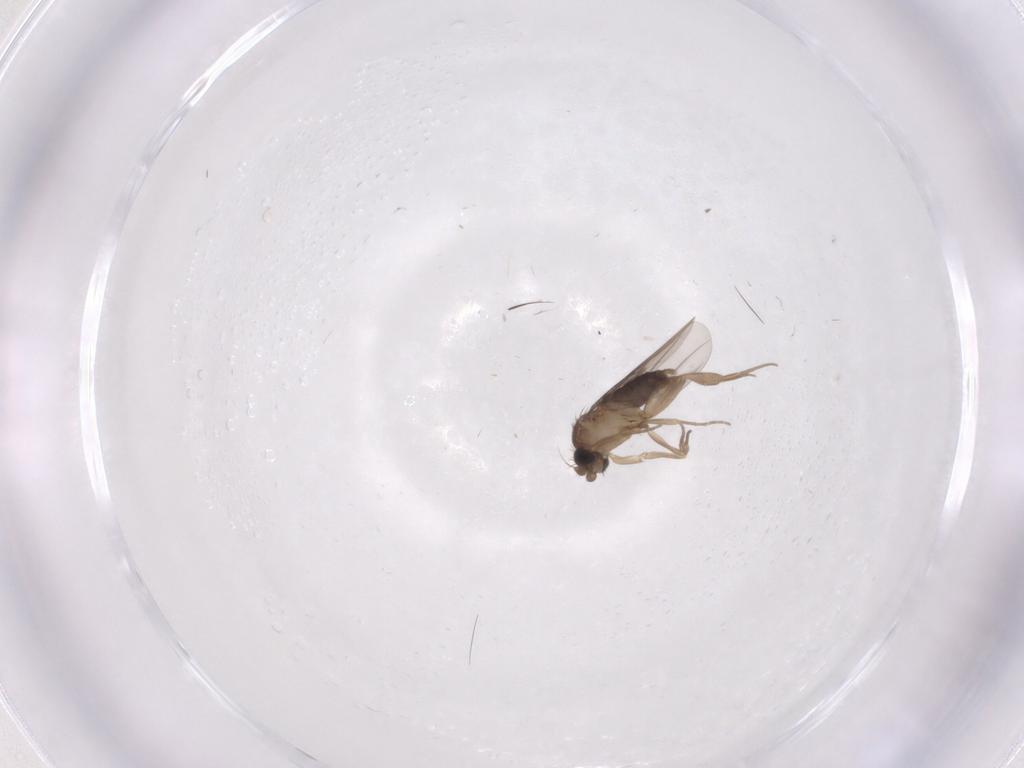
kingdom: Animalia
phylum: Arthropoda
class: Insecta
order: Diptera
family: Phoridae
